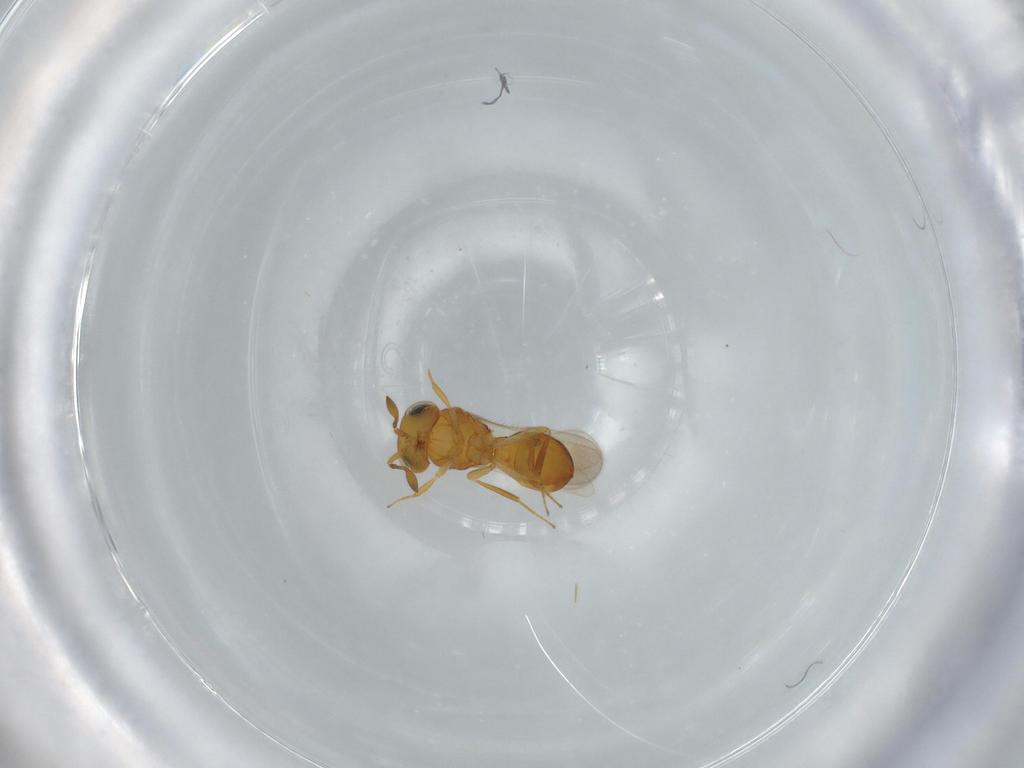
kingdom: Animalia
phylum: Arthropoda
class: Insecta
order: Hymenoptera
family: Scelionidae
